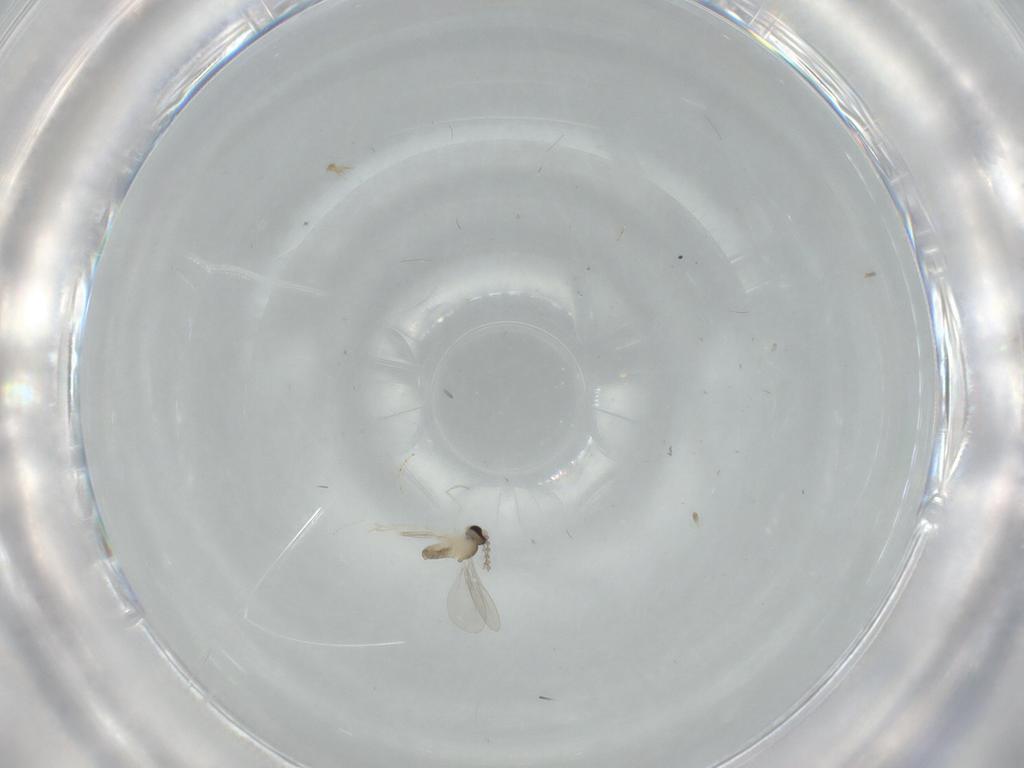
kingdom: Animalia
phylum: Arthropoda
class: Insecta
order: Diptera
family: Cecidomyiidae
